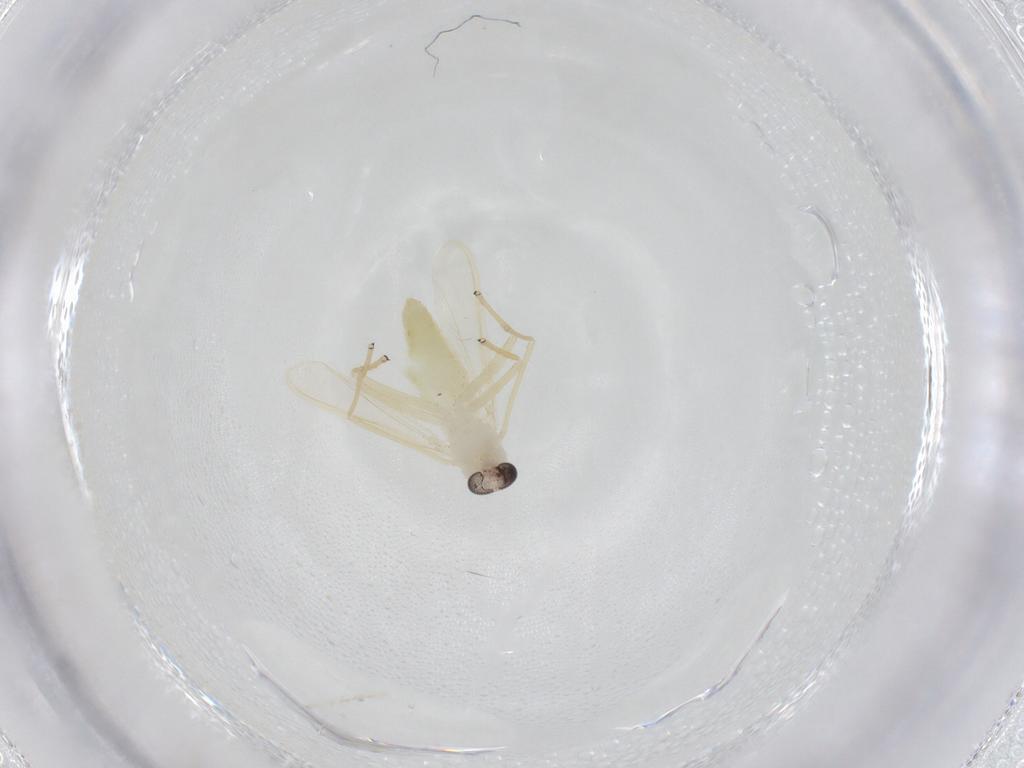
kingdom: Animalia
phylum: Arthropoda
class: Insecta
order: Diptera
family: Chironomidae
